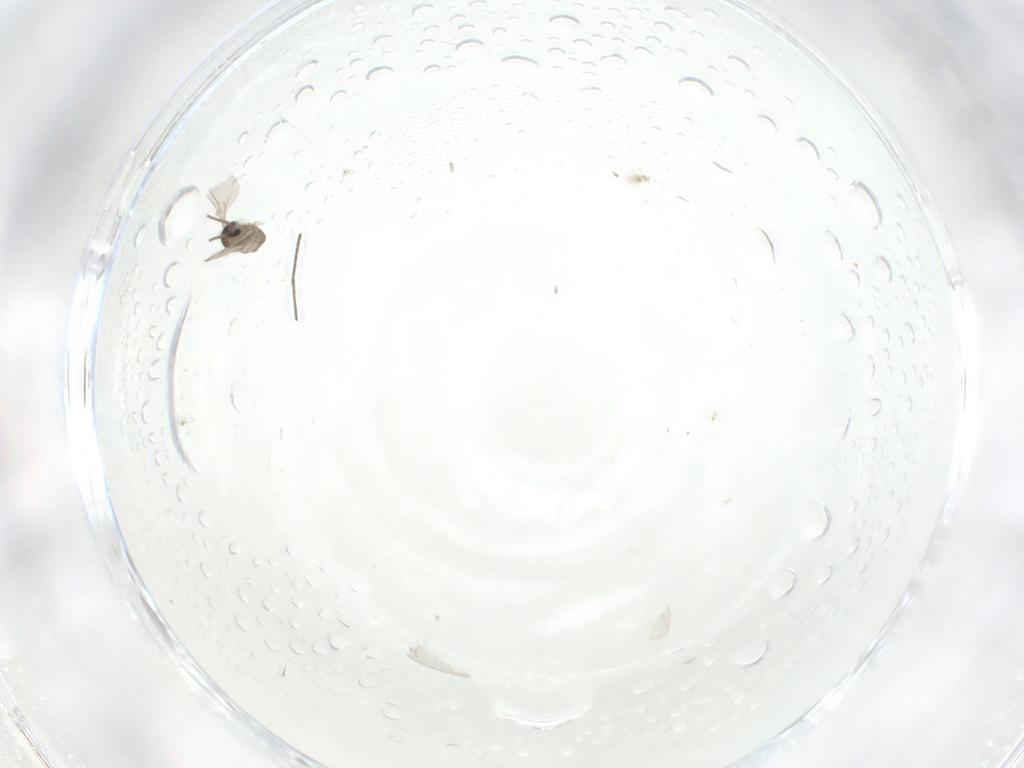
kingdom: Animalia
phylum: Arthropoda
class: Insecta
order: Diptera
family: Cecidomyiidae
